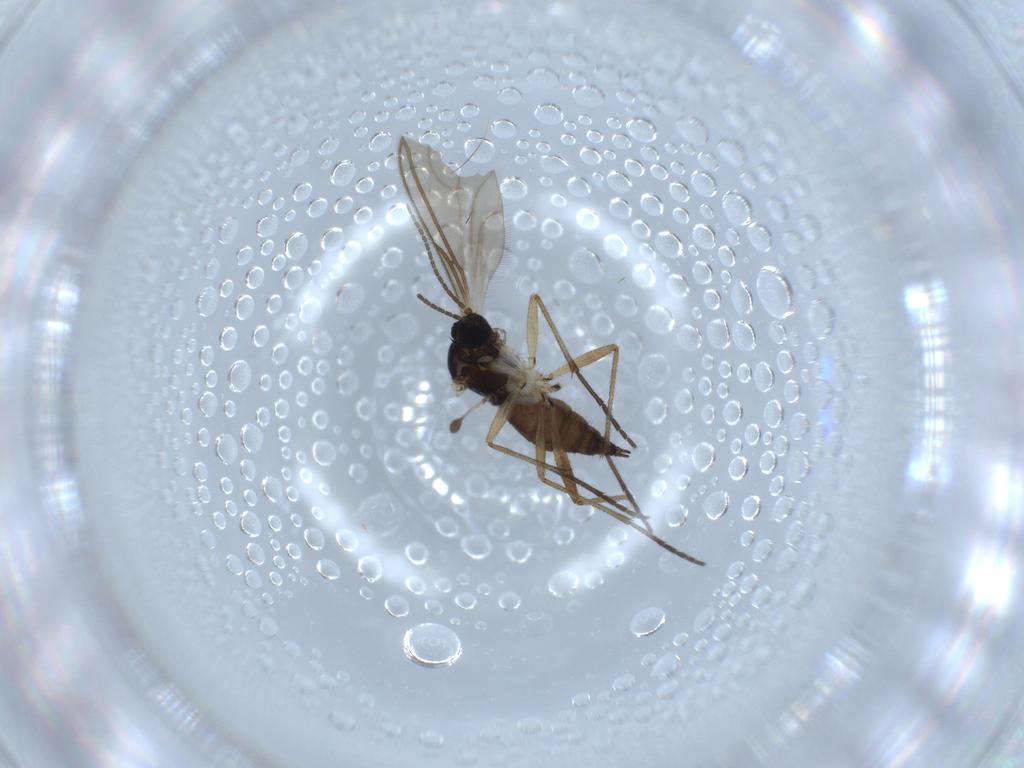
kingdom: Animalia
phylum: Arthropoda
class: Insecta
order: Diptera
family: Sciaridae
